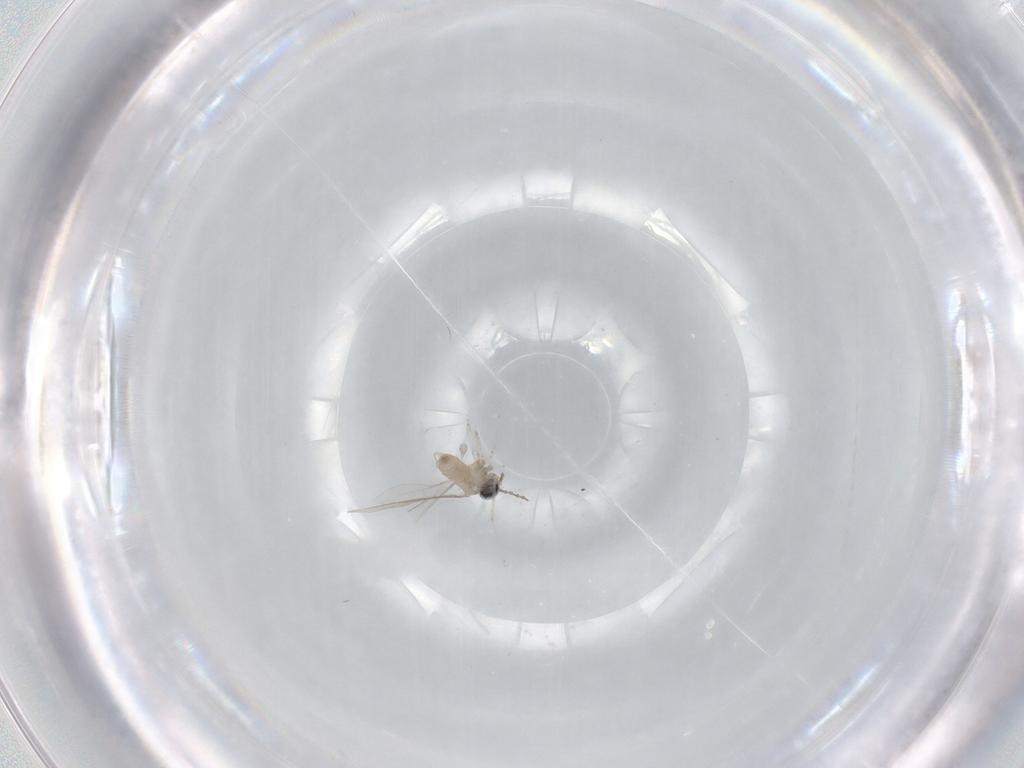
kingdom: Animalia
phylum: Arthropoda
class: Insecta
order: Diptera
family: Cecidomyiidae
